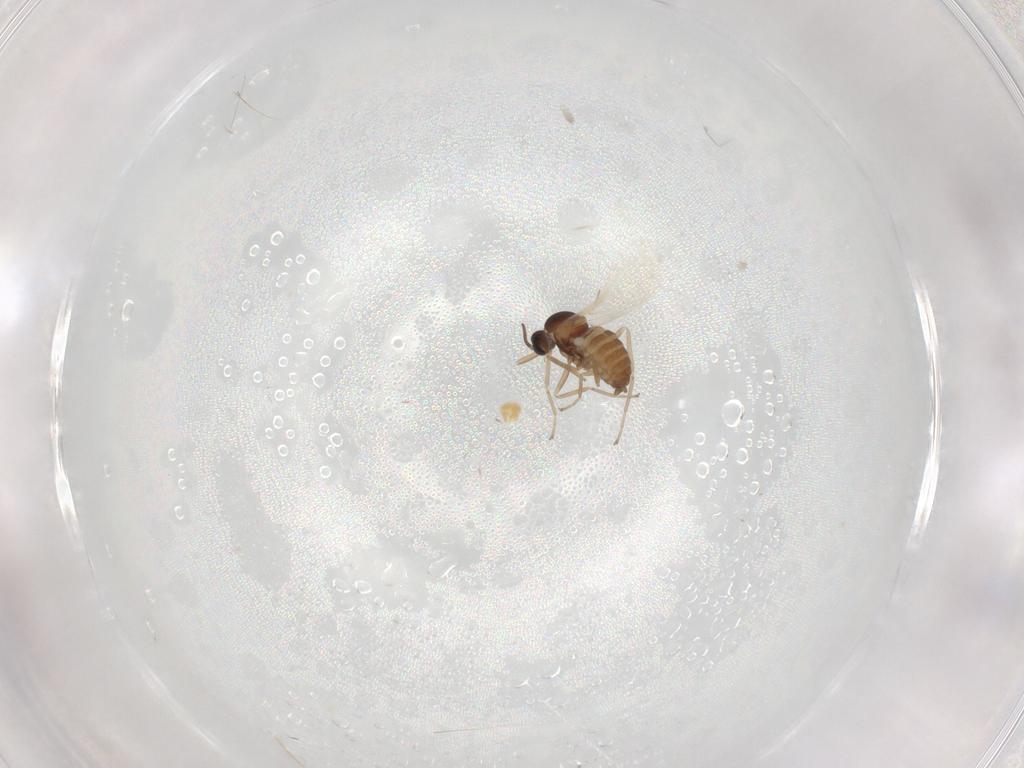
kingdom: Animalia
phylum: Arthropoda
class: Insecta
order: Diptera
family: Cecidomyiidae
